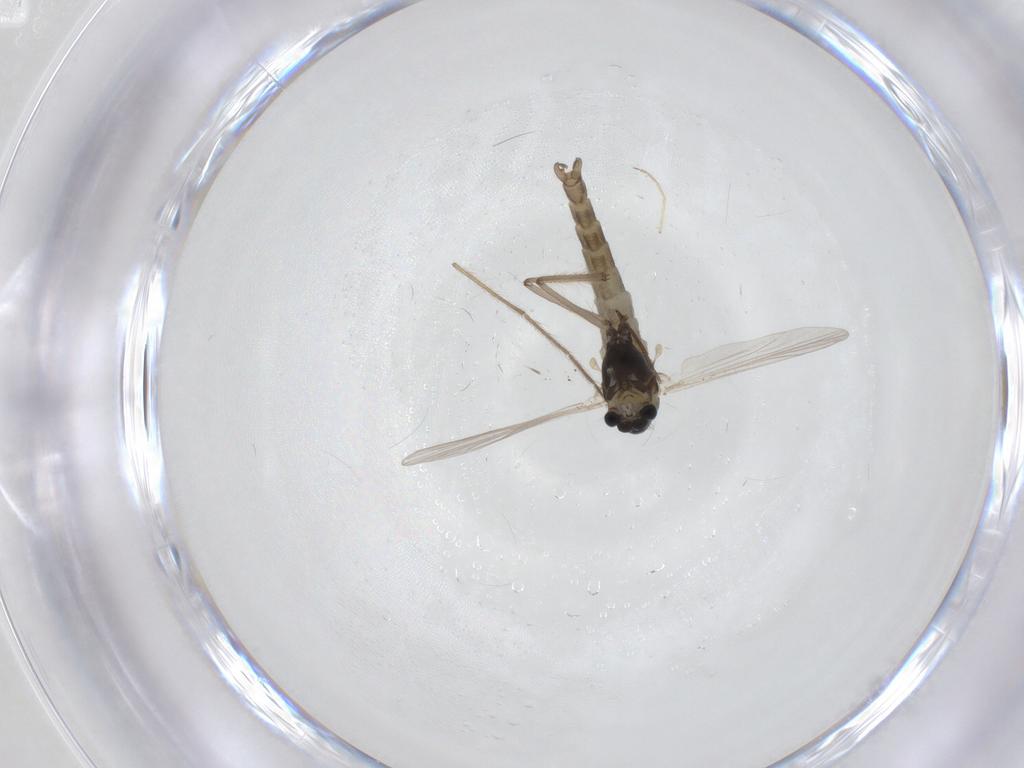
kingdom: Animalia
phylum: Arthropoda
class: Insecta
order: Diptera
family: Chironomidae
